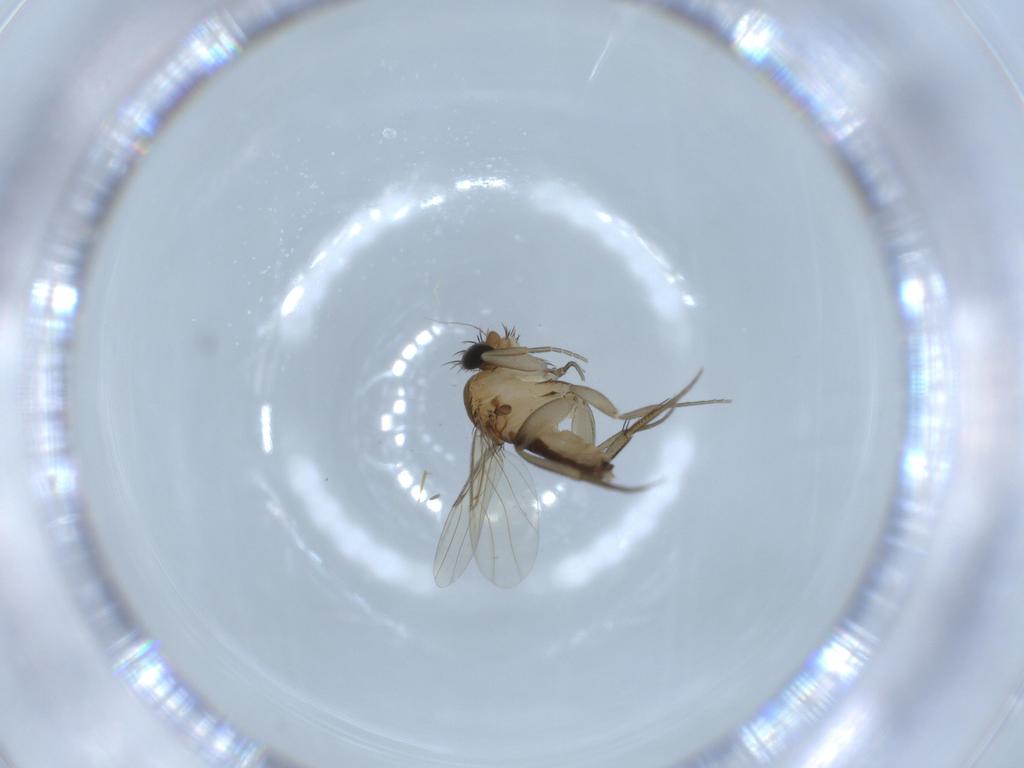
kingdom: Animalia
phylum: Arthropoda
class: Insecta
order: Diptera
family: Phoridae
